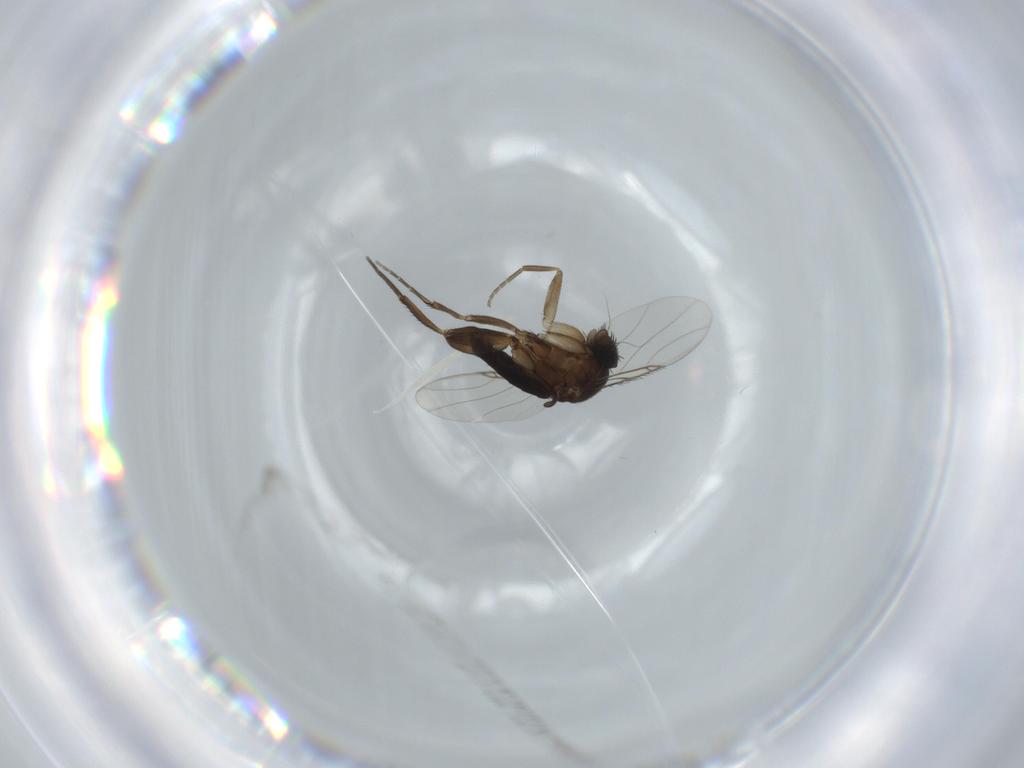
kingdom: Animalia
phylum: Arthropoda
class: Insecta
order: Diptera
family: Phoridae
